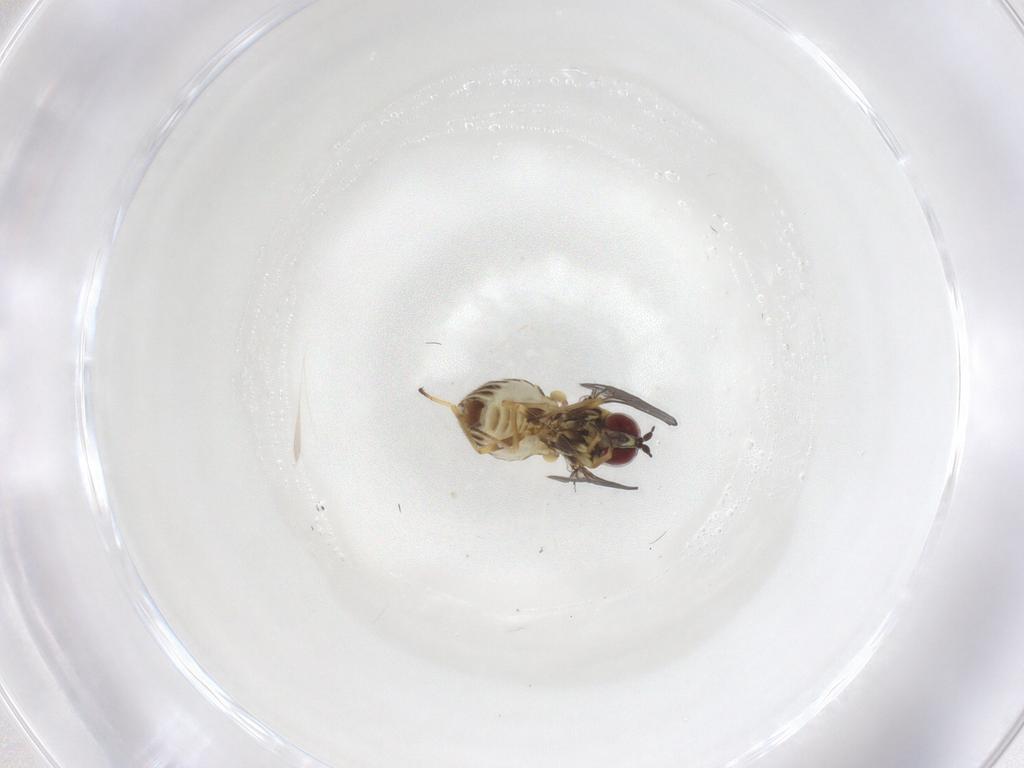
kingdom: Animalia
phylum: Arthropoda
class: Insecta
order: Diptera
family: Bombyliidae
